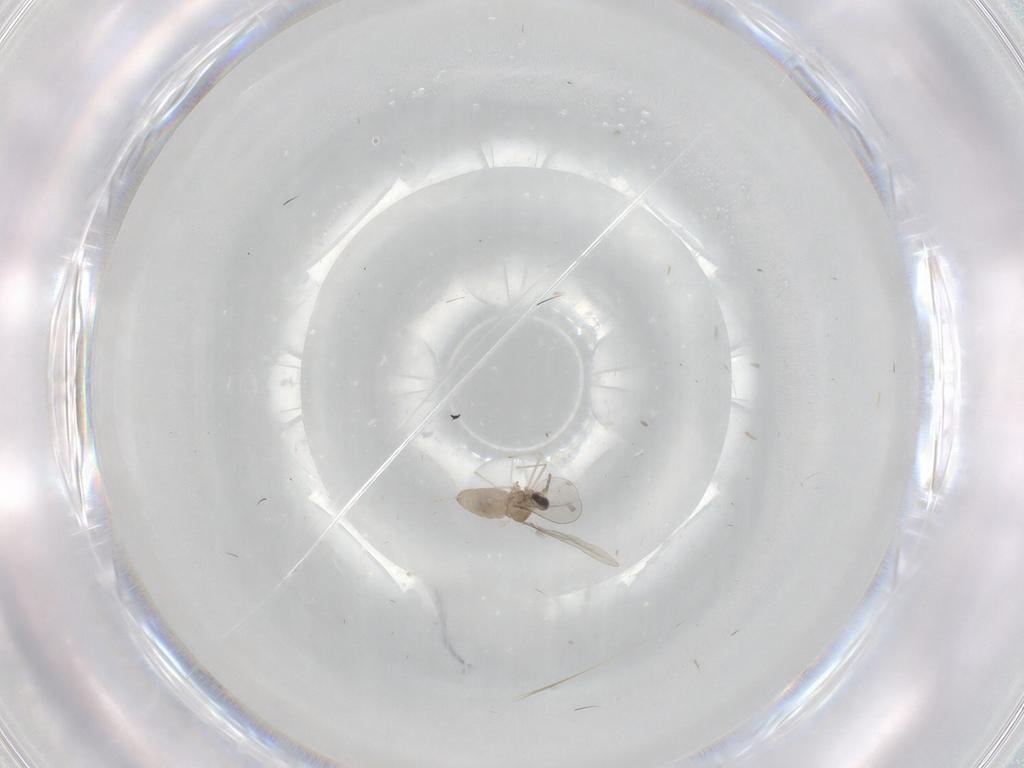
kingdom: Animalia
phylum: Arthropoda
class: Insecta
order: Diptera
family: Cecidomyiidae
